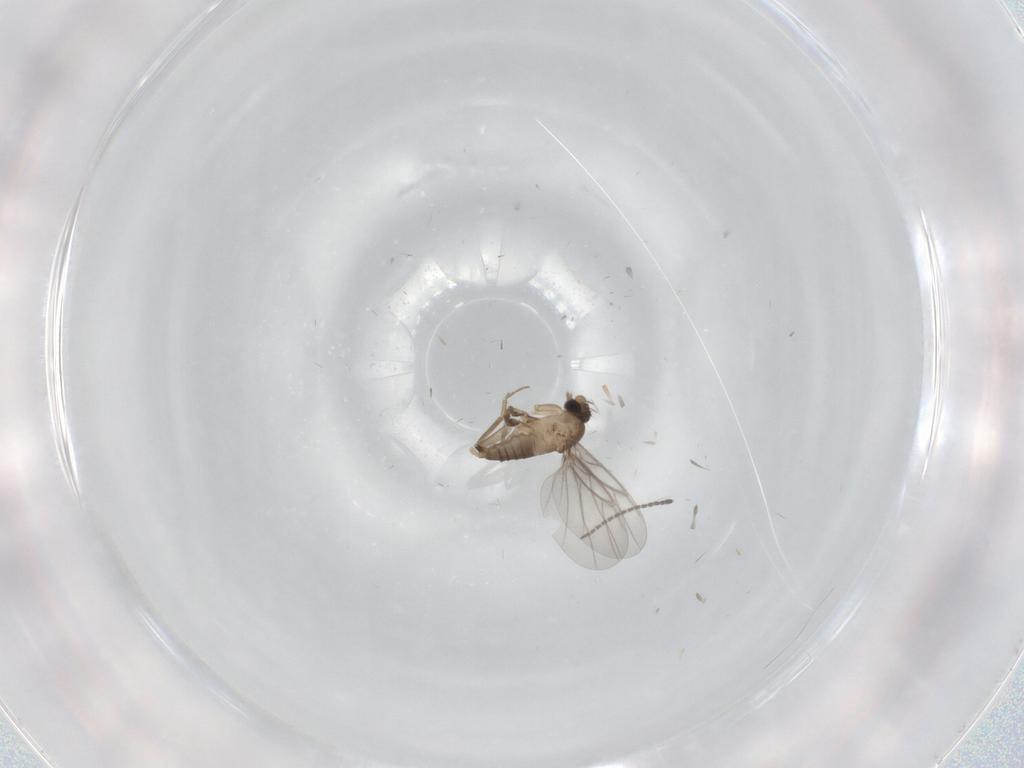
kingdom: Animalia
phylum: Arthropoda
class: Insecta
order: Diptera
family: Sciaridae
